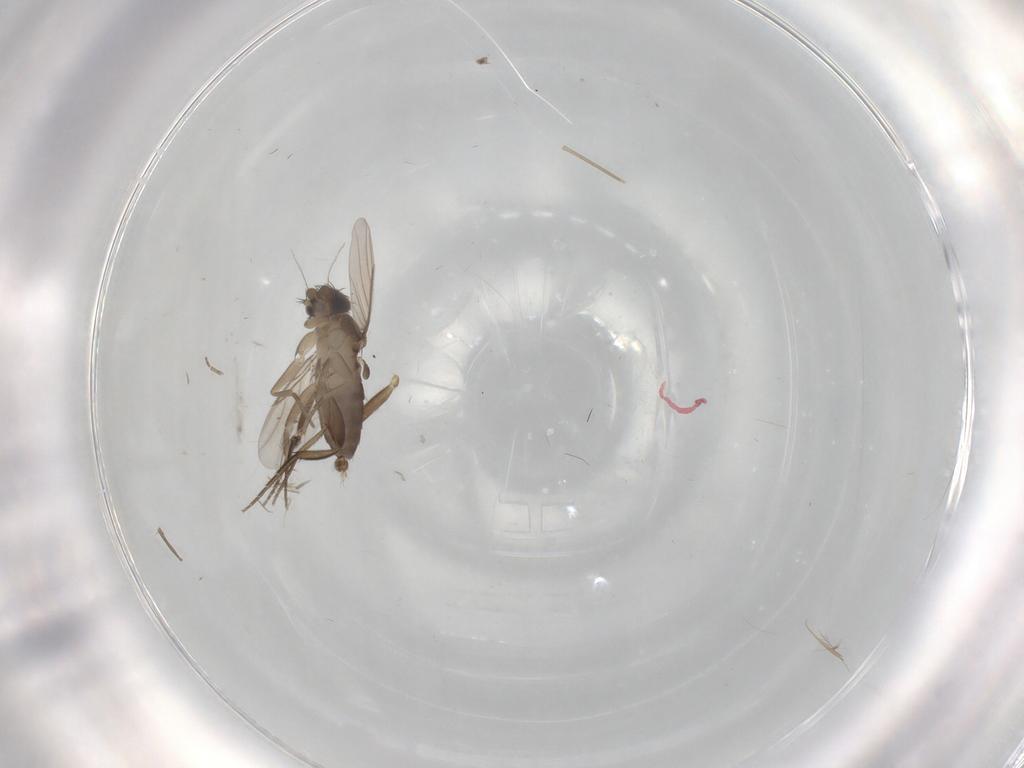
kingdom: Animalia
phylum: Arthropoda
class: Insecta
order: Diptera
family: Phoridae
